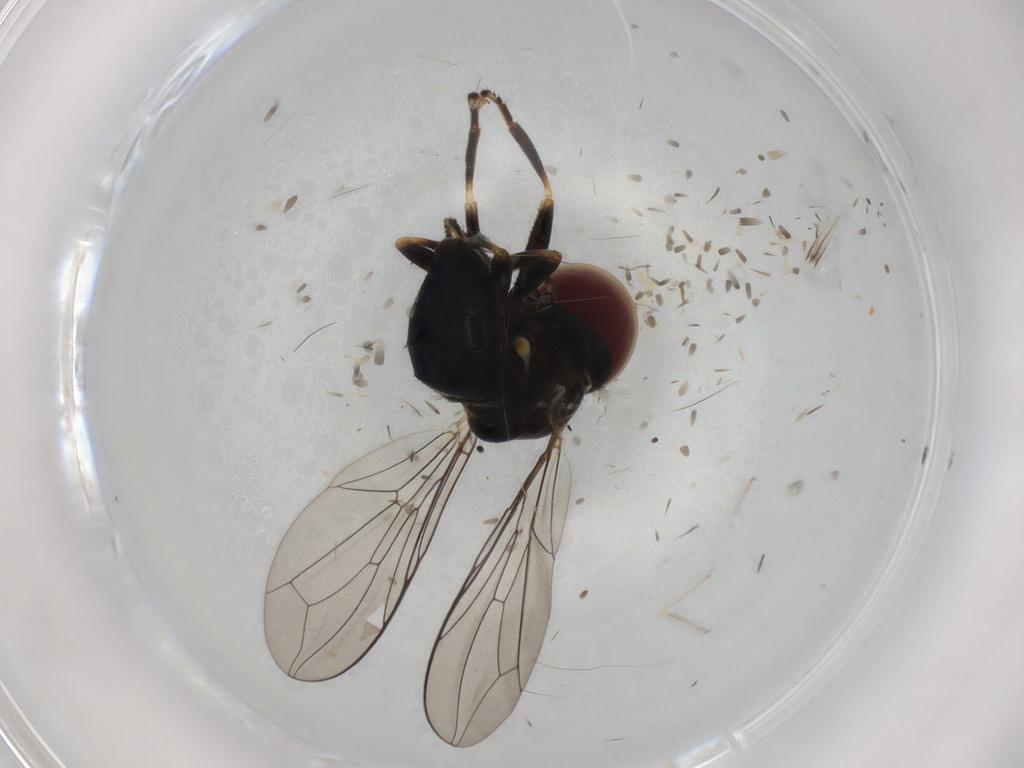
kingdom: Animalia
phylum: Arthropoda
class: Insecta
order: Diptera
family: Pipunculidae
